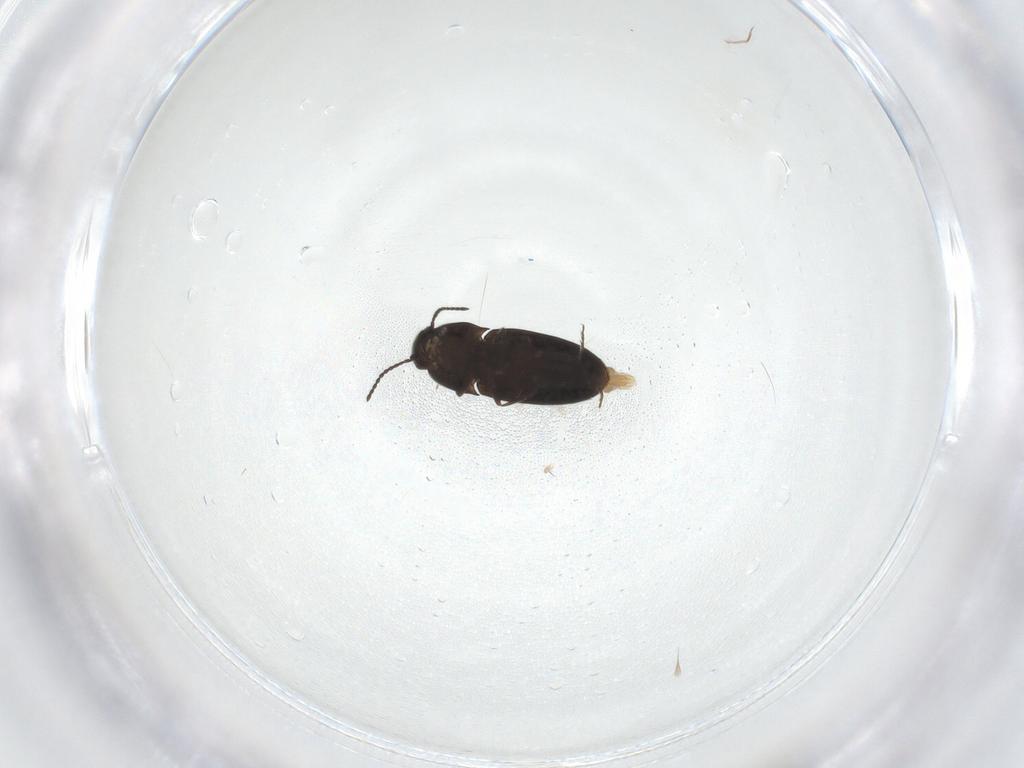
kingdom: Animalia
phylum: Arthropoda
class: Insecta
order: Coleoptera
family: Elateridae
